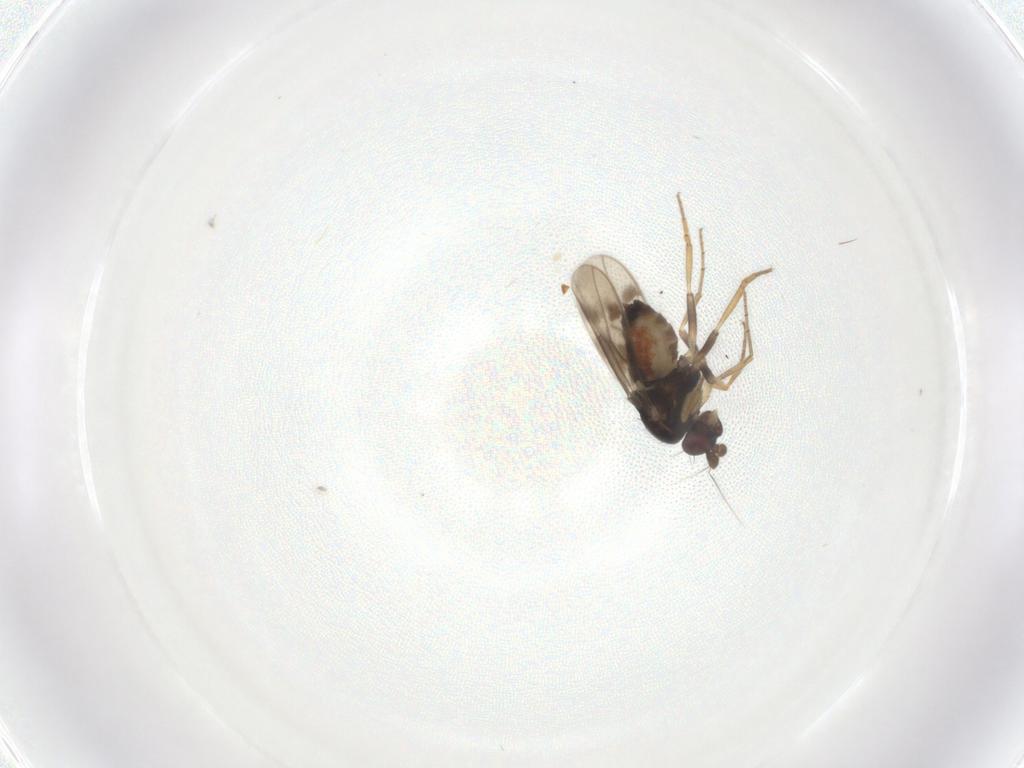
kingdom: Animalia
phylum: Arthropoda
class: Insecta
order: Diptera
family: Sphaeroceridae
